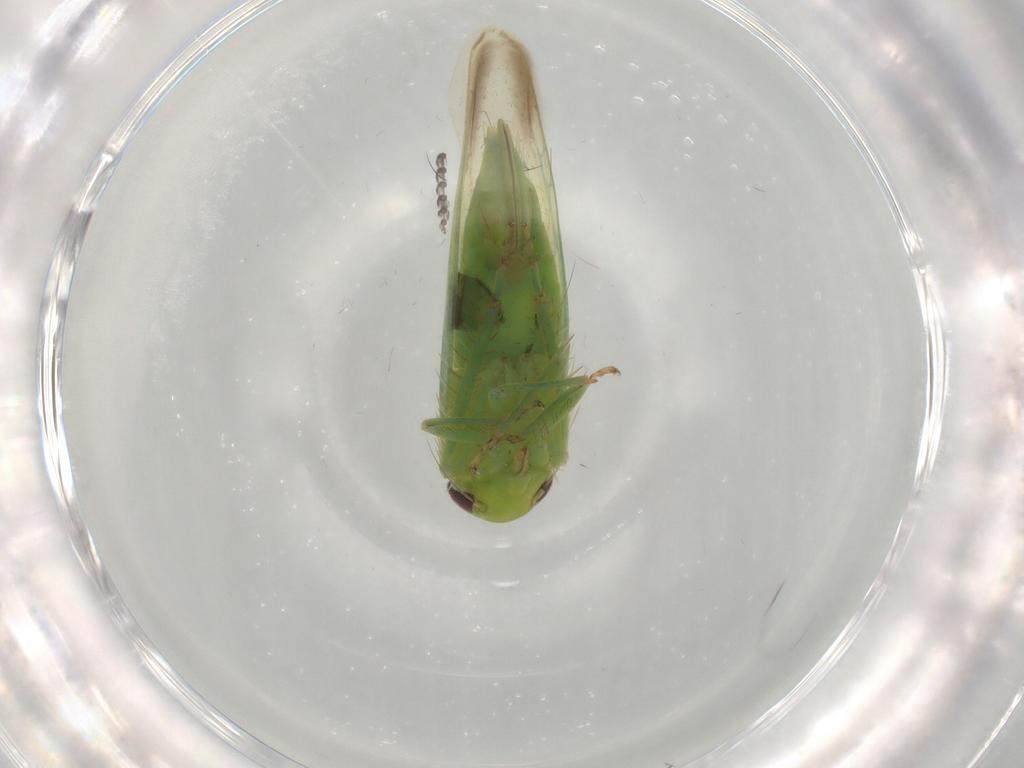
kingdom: Animalia
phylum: Arthropoda
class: Insecta
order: Hemiptera
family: Cicadellidae
